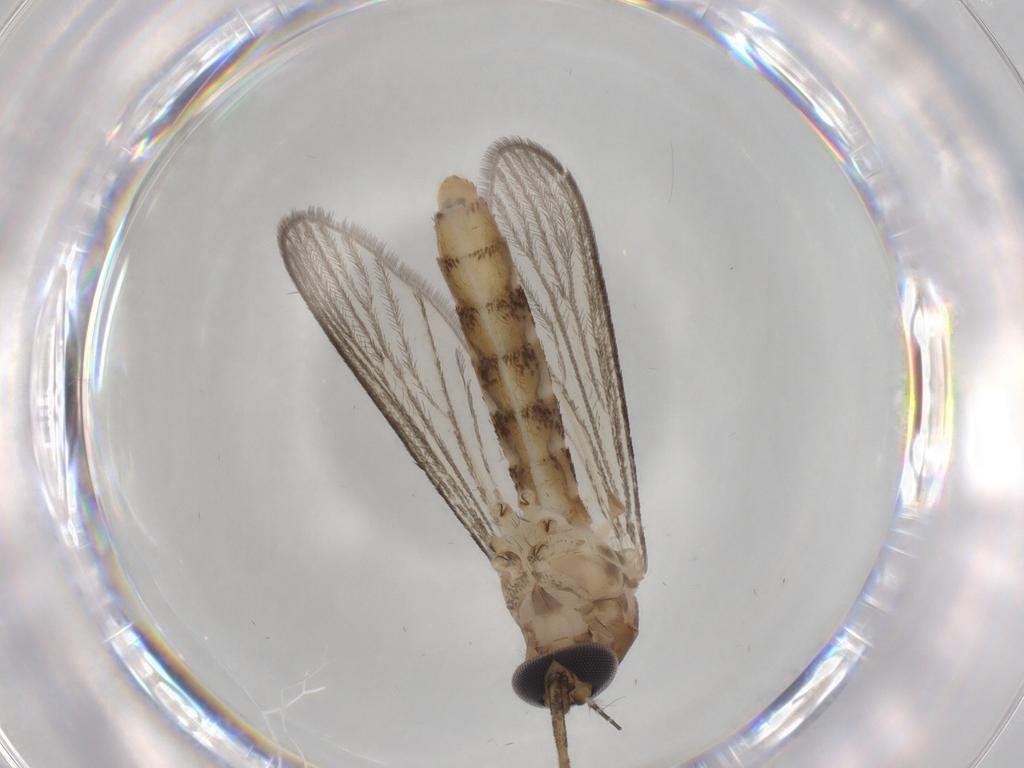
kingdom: Animalia
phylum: Arthropoda
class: Insecta
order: Diptera
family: Chironomidae
